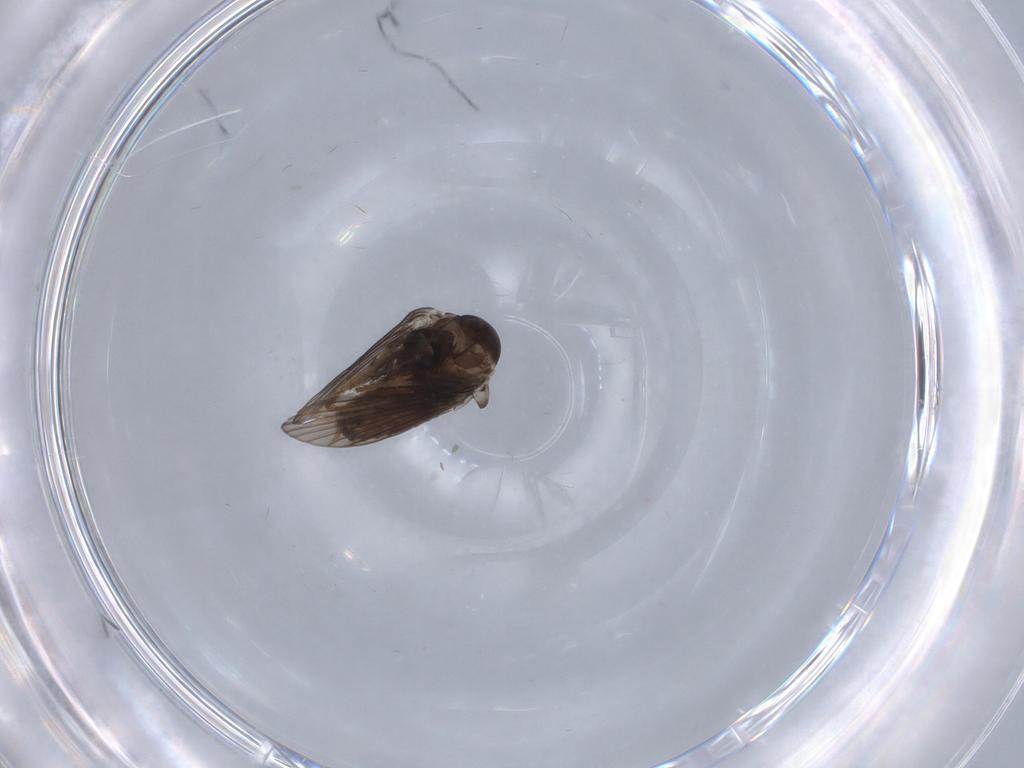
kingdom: Animalia
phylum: Arthropoda
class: Insecta
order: Diptera
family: Psychodidae
